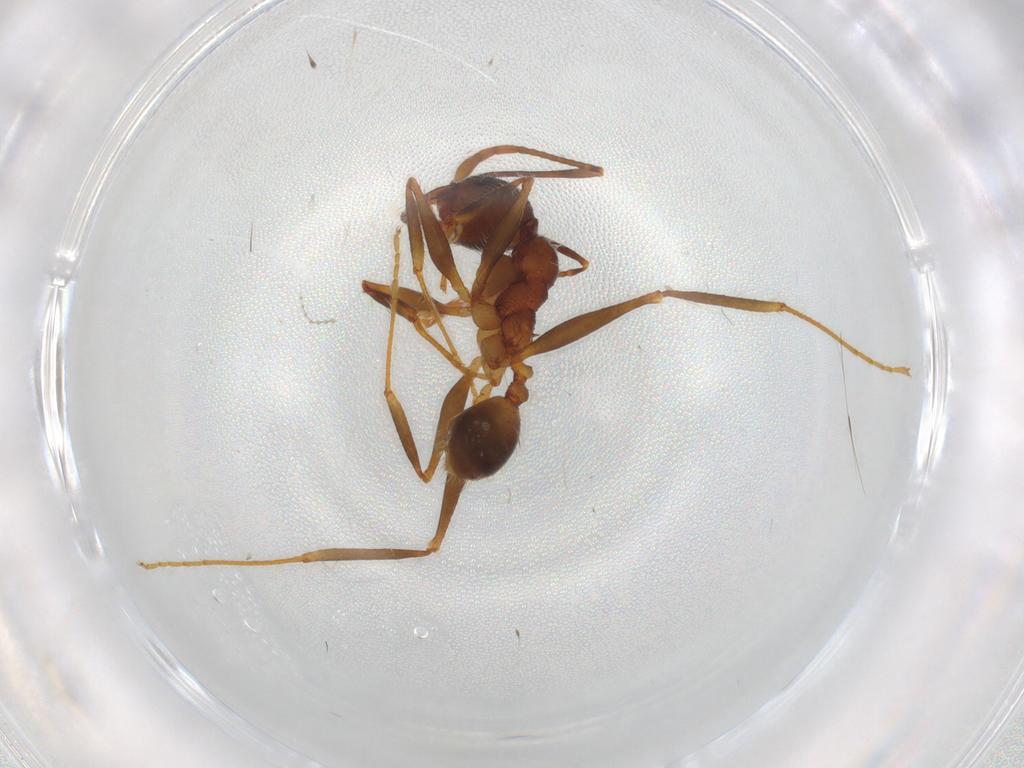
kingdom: Animalia
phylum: Arthropoda
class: Insecta
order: Hymenoptera
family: Formicidae
